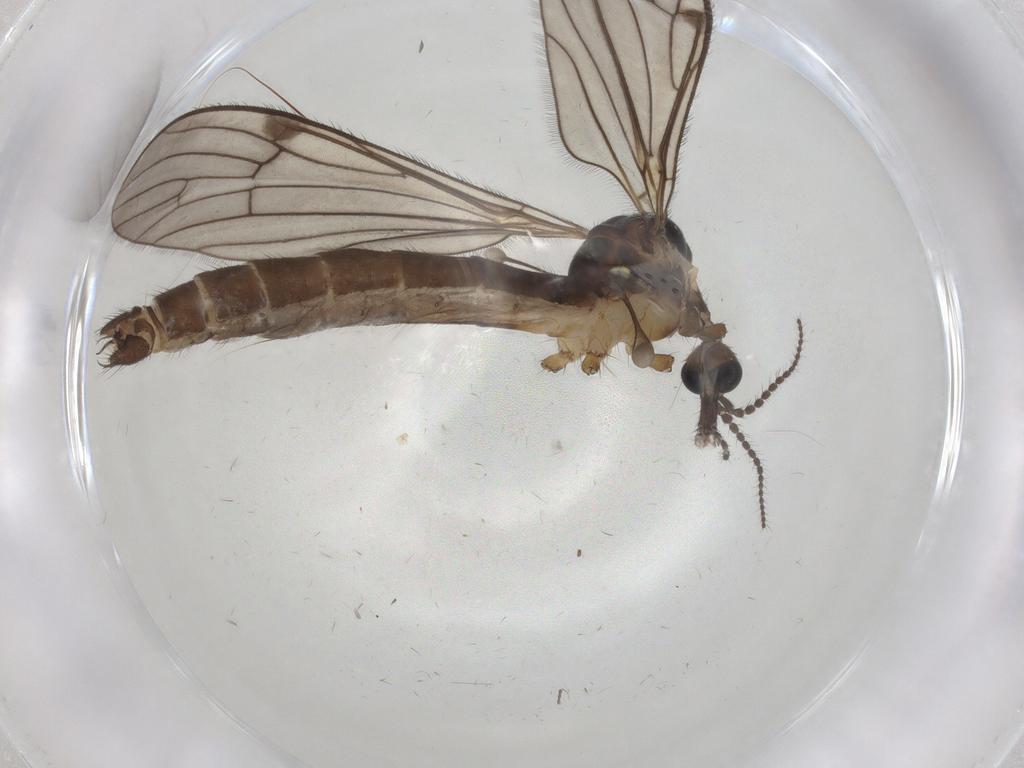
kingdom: Animalia
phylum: Arthropoda
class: Insecta
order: Diptera
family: Limoniidae
